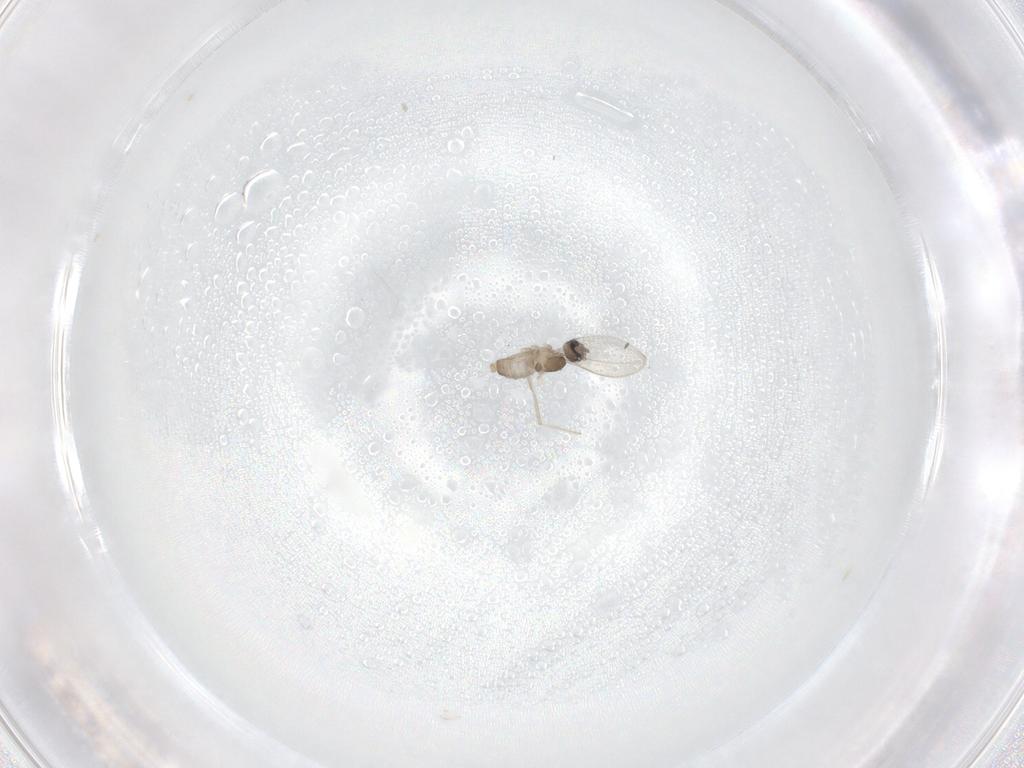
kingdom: Animalia
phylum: Arthropoda
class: Insecta
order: Diptera
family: Cecidomyiidae
